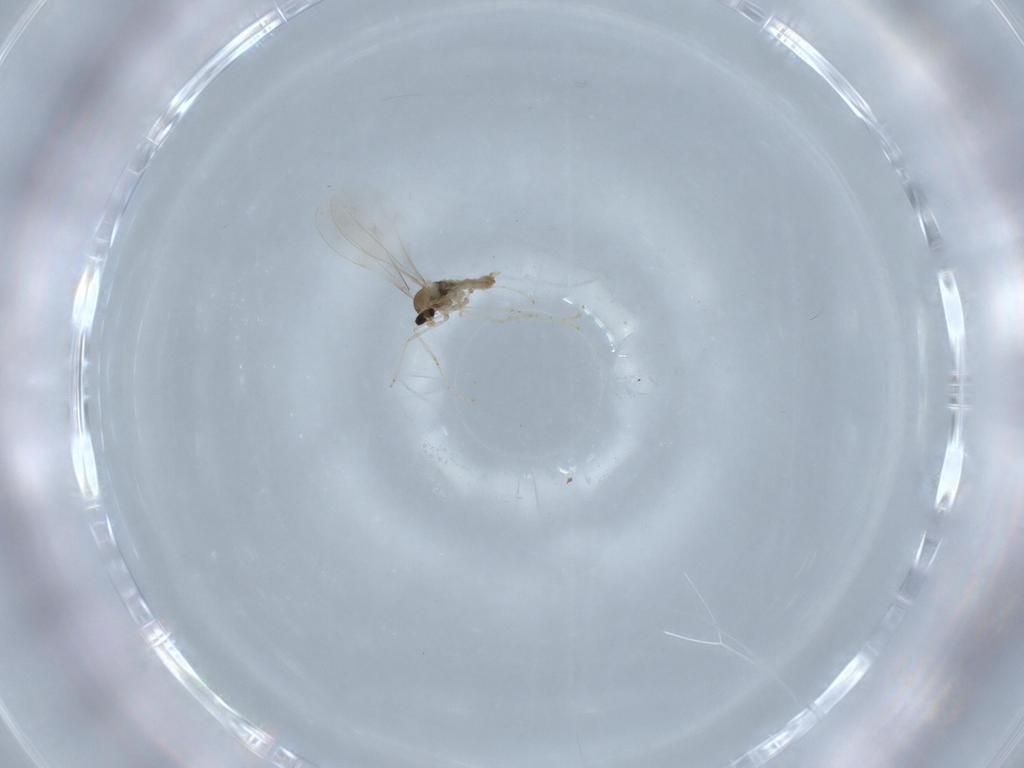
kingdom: Animalia
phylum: Arthropoda
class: Insecta
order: Diptera
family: Cecidomyiidae
